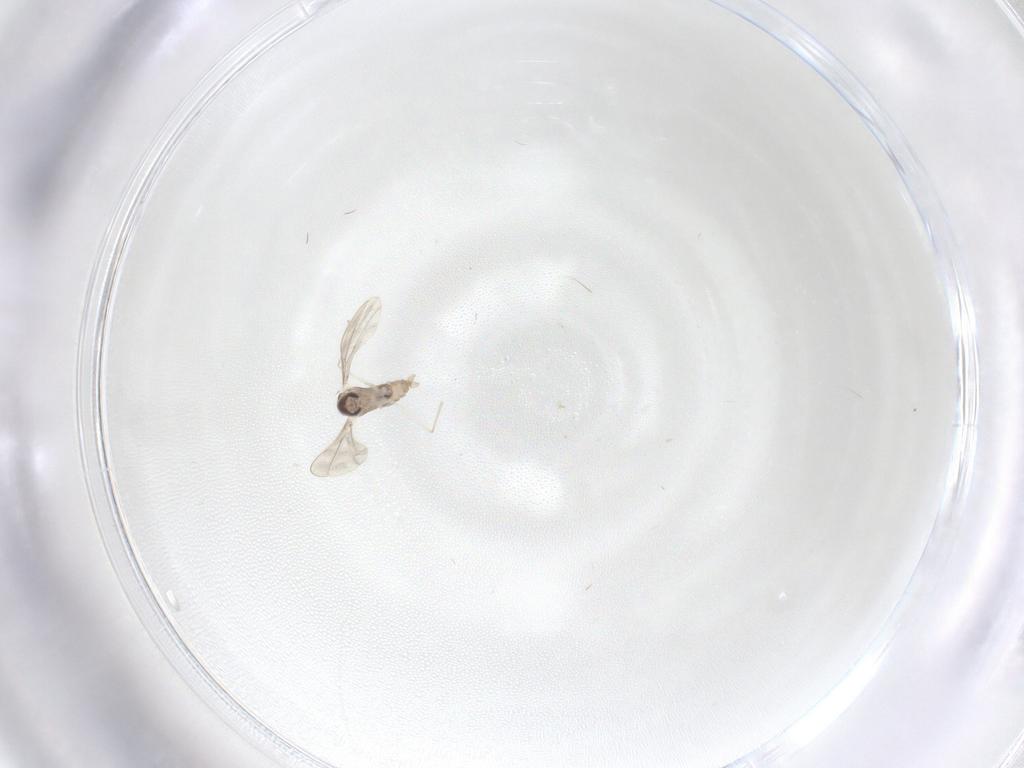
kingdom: Animalia
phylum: Arthropoda
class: Insecta
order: Diptera
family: Cecidomyiidae
